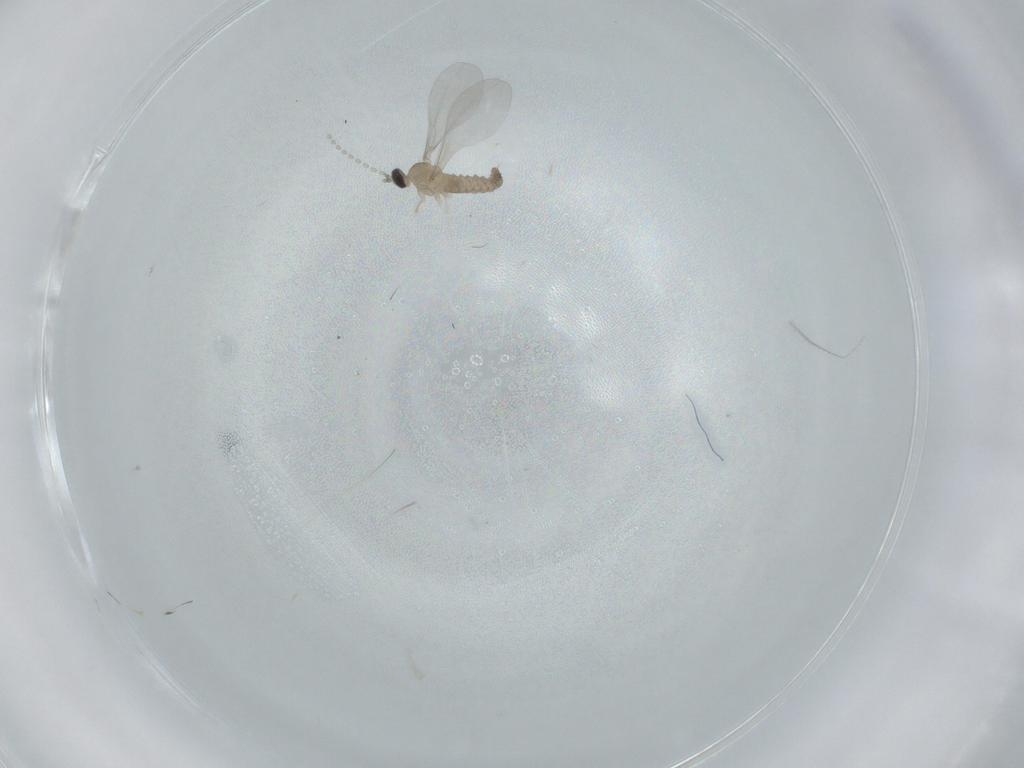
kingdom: Animalia
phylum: Arthropoda
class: Insecta
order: Diptera
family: Cecidomyiidae
